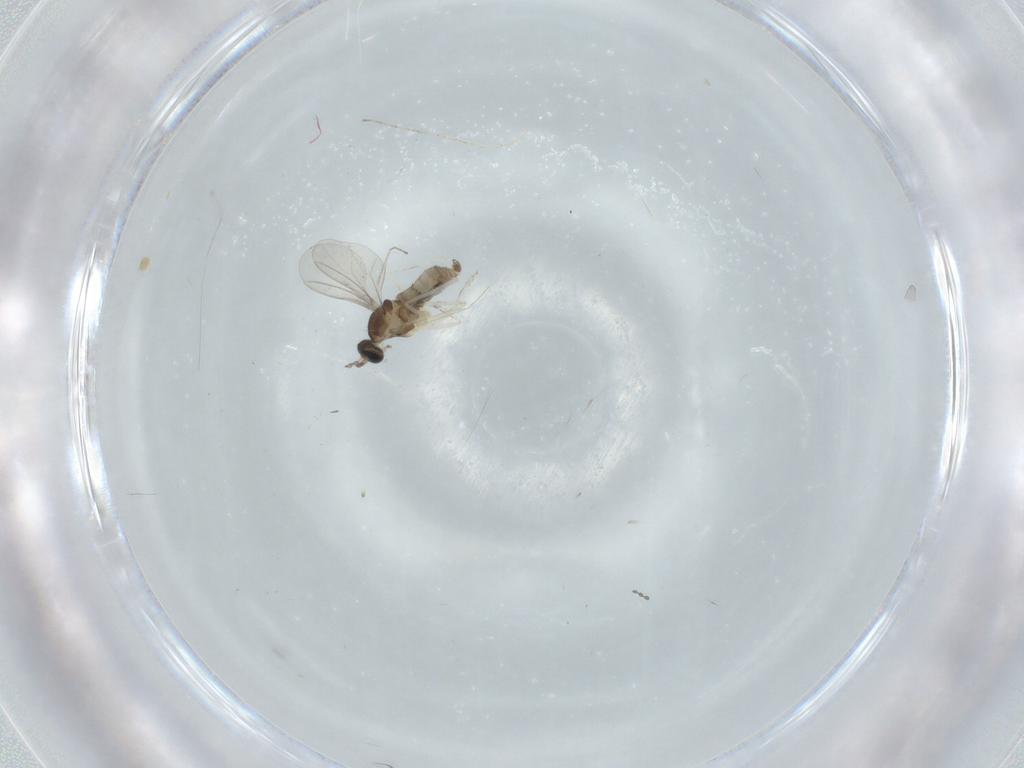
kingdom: Animalia
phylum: Arthropoda
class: Insecta
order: Diptera
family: Cecidomyiidae
